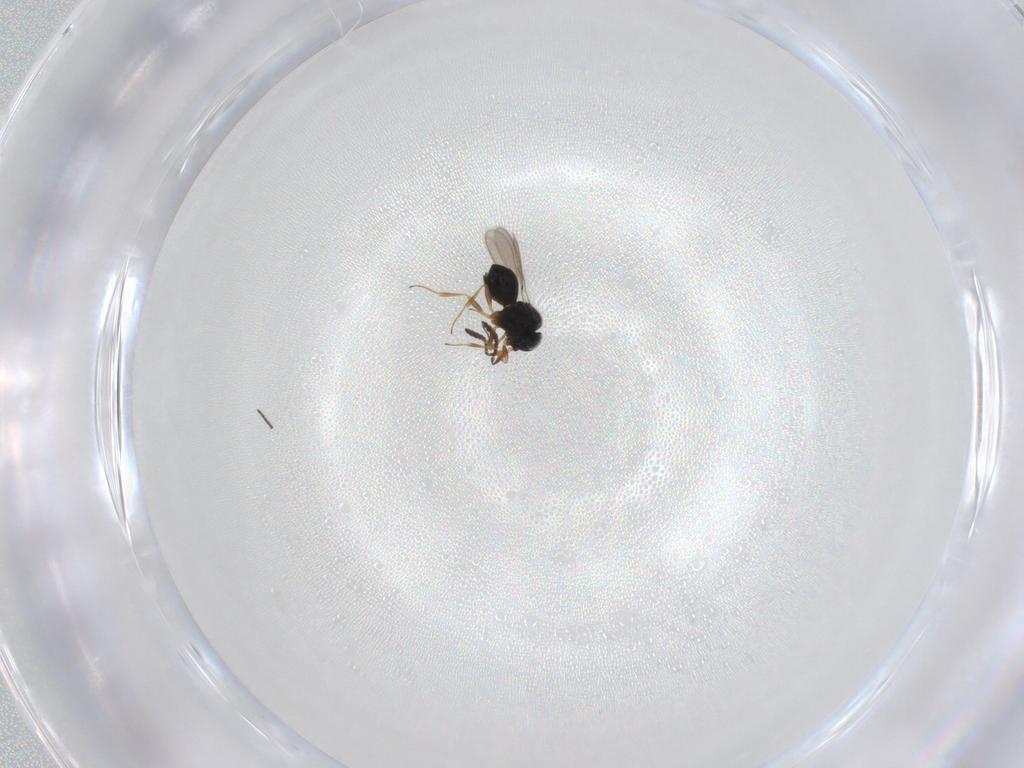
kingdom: Animalia
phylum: Arthropoda
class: Insecta
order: Hymenoptera
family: Scelionidae
